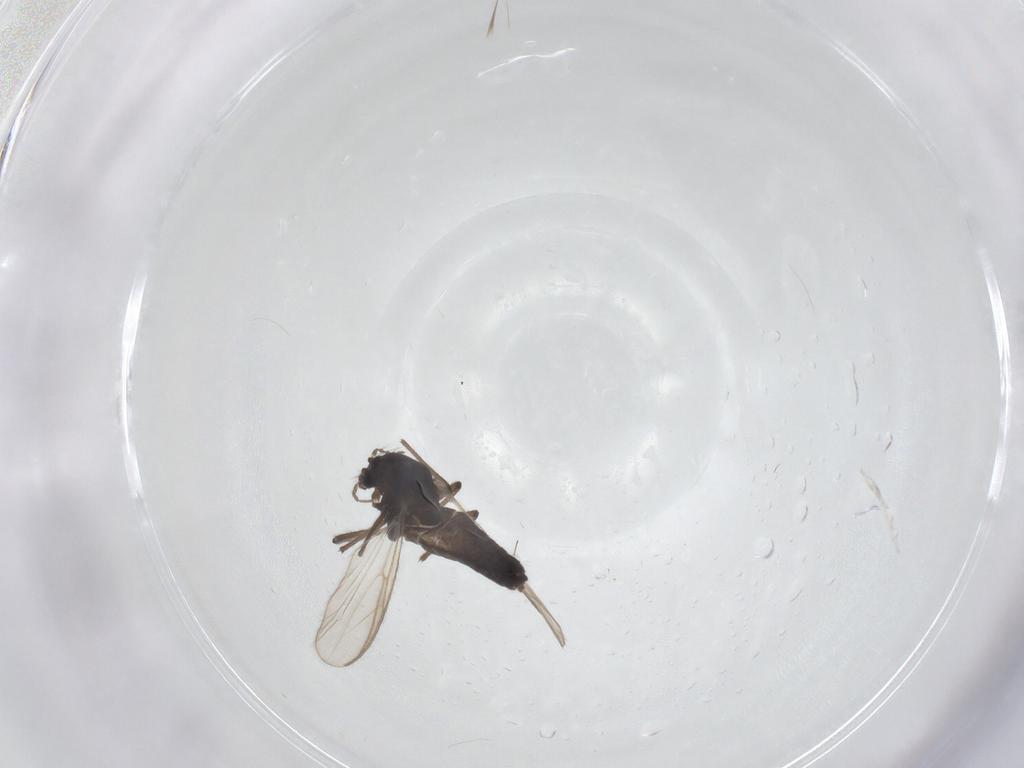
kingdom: Animalia
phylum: Arthropoda
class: Insecta
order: Diptera
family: Chironomidae
